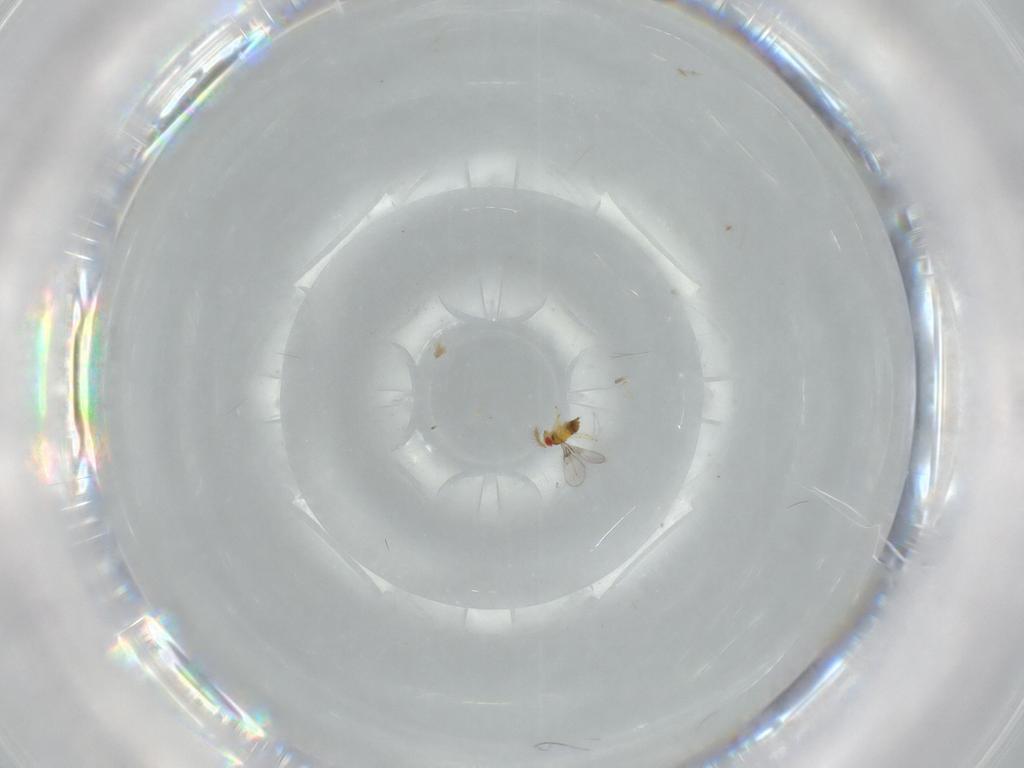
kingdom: Animalia
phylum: Arthropoda
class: Insecta
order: Hymenoptera
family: Trichogrammatidae
